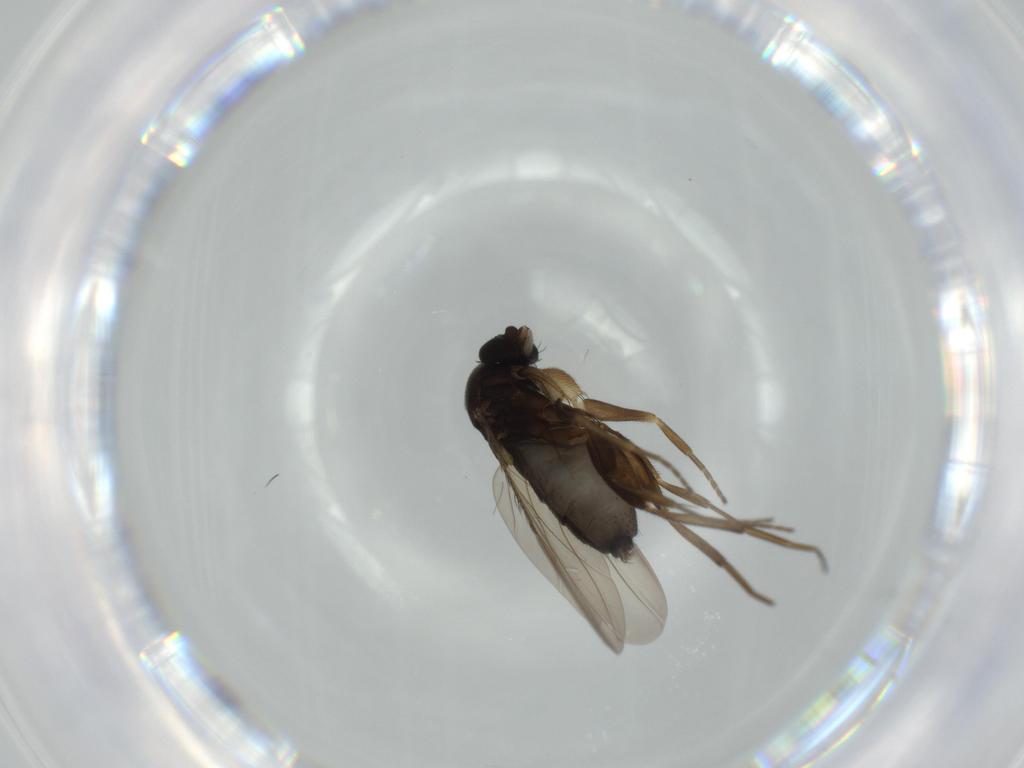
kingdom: Animalia
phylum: Arthropoda
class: Insecta
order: Diptera
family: Phoridae
